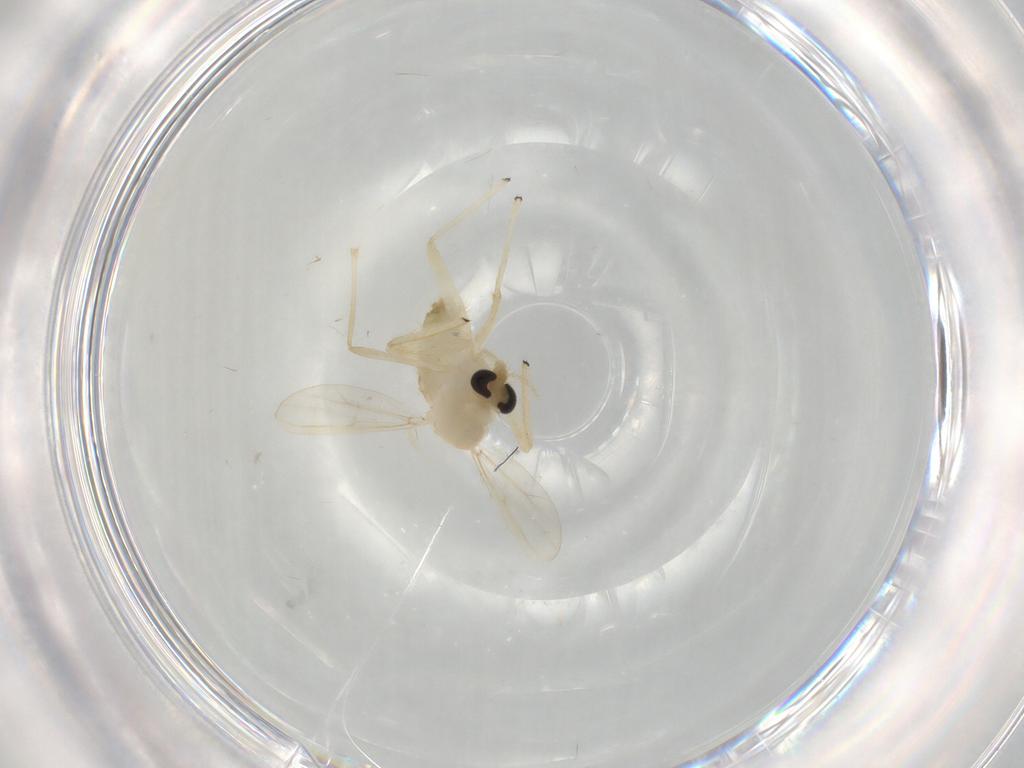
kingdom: Animalia
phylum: Arthropoda
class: Insecta
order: Diptera
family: Chironomidae
